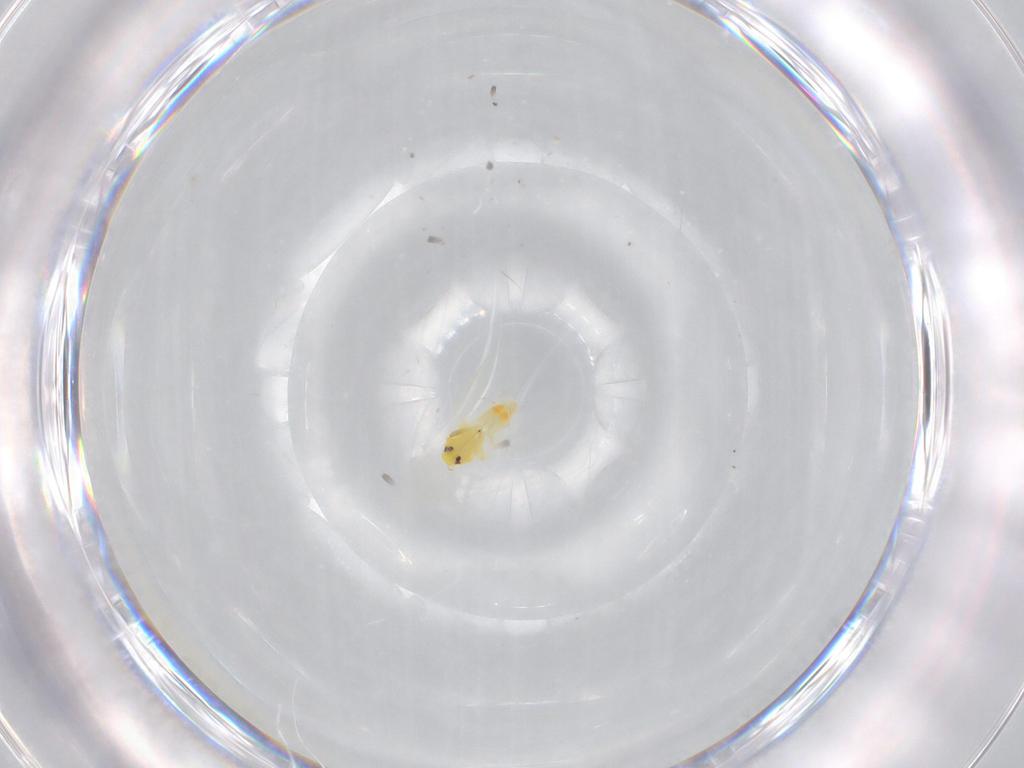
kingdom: Animalia
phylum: Arthropoda
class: Insecta
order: Hemiptera
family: Aleyrodidae
